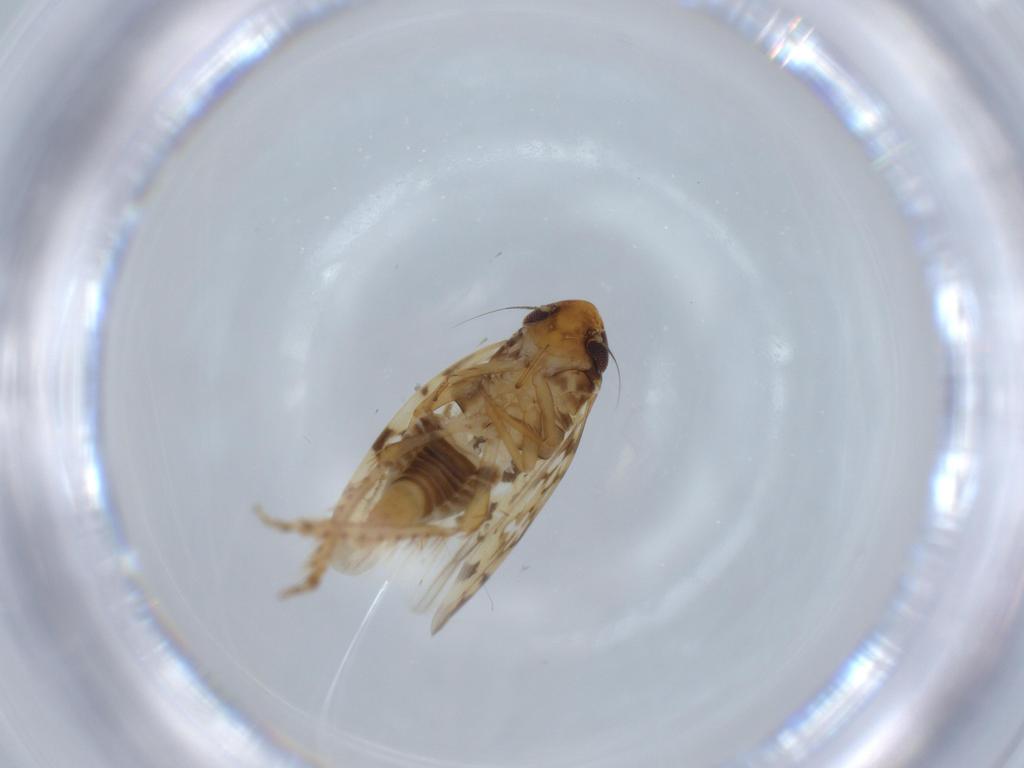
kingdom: Animalia
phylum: Arthropoda
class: Insecta
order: Hemiptera
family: Cicadellidae
